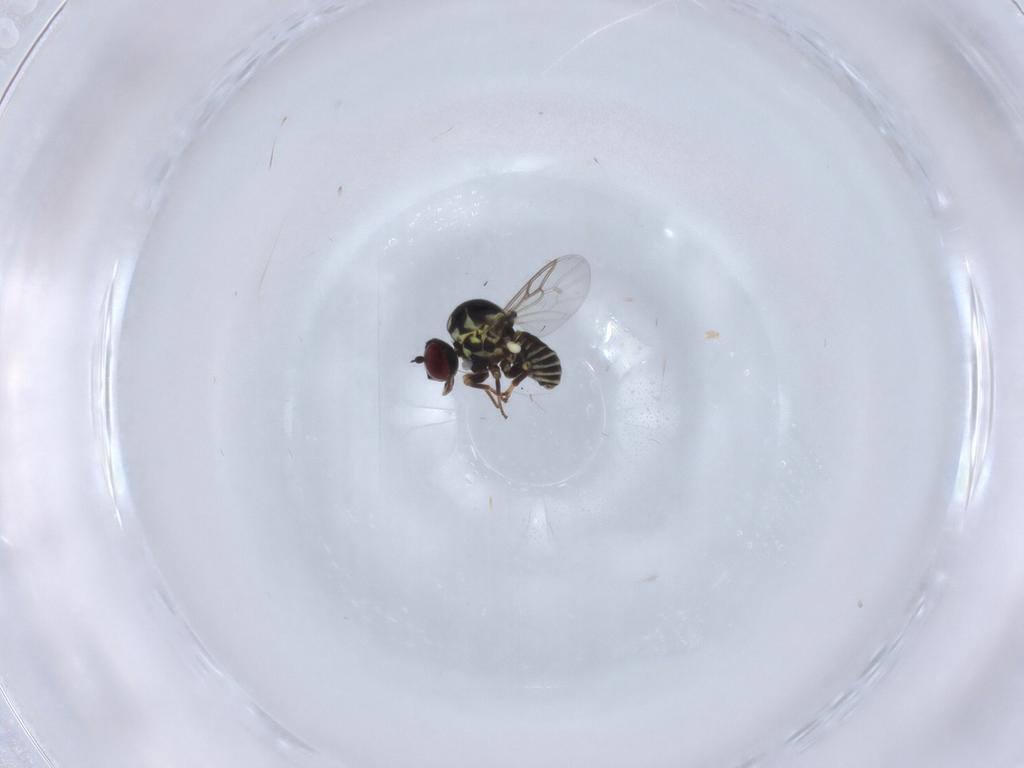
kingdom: Animalia
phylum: Arthropoda
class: Insecta
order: Diptera
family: Mythicomyiidae
